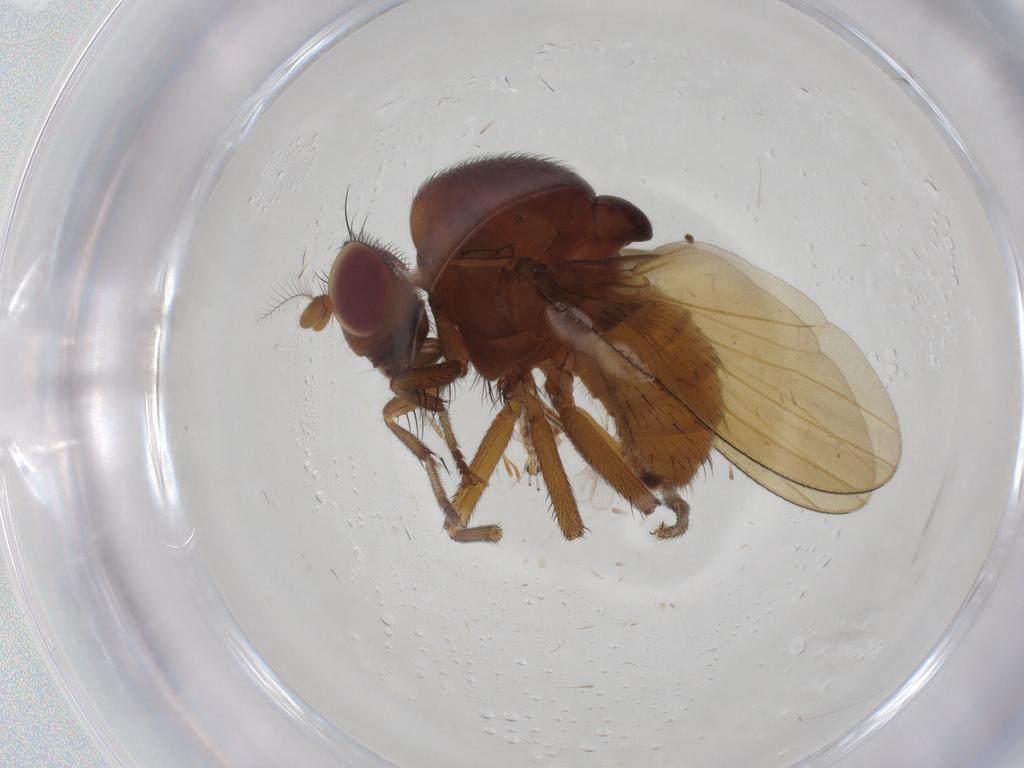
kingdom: Animalia
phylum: Arthropoda
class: Insecta
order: Diptera
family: Lauxaniidae
